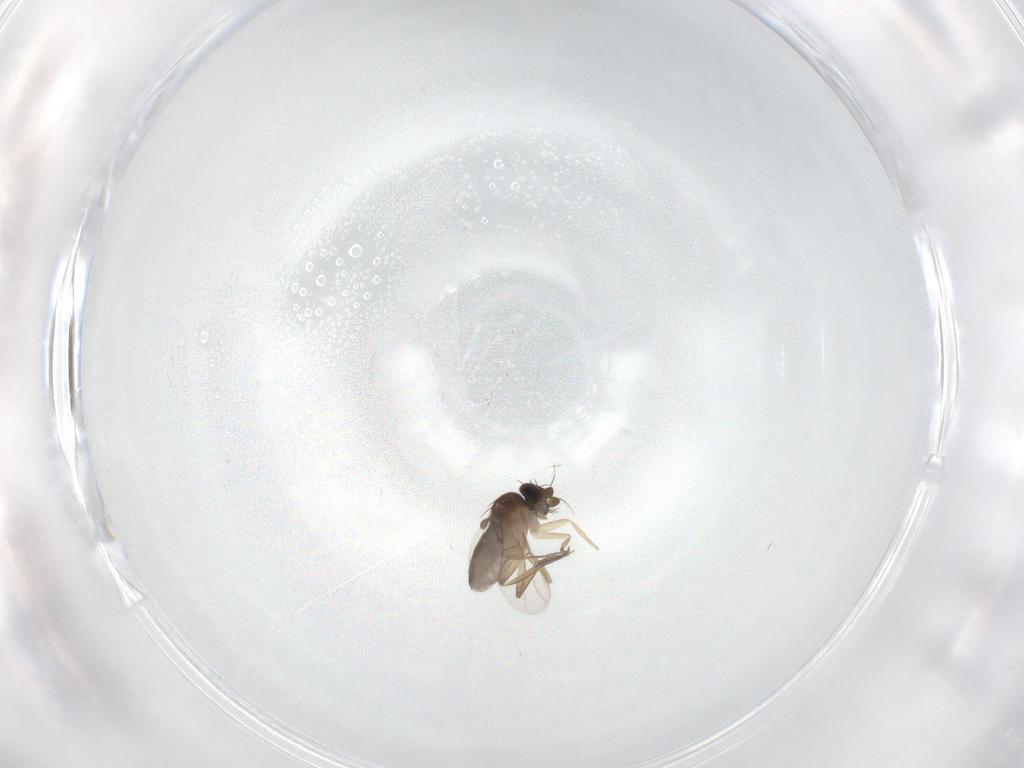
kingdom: Animalia
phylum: Arthropoda
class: Insecta
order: Diptera
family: Phoridae
